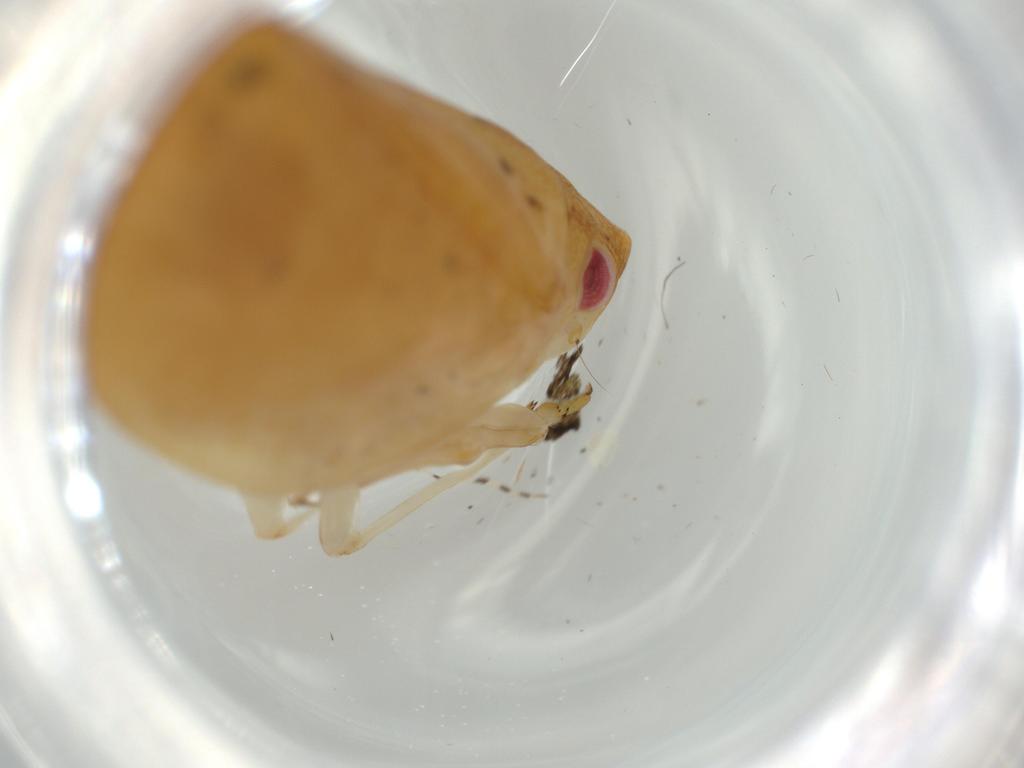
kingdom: Animalia
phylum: Arthropoda
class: Insecta
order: Hemiptera
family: Acanaloniidae
